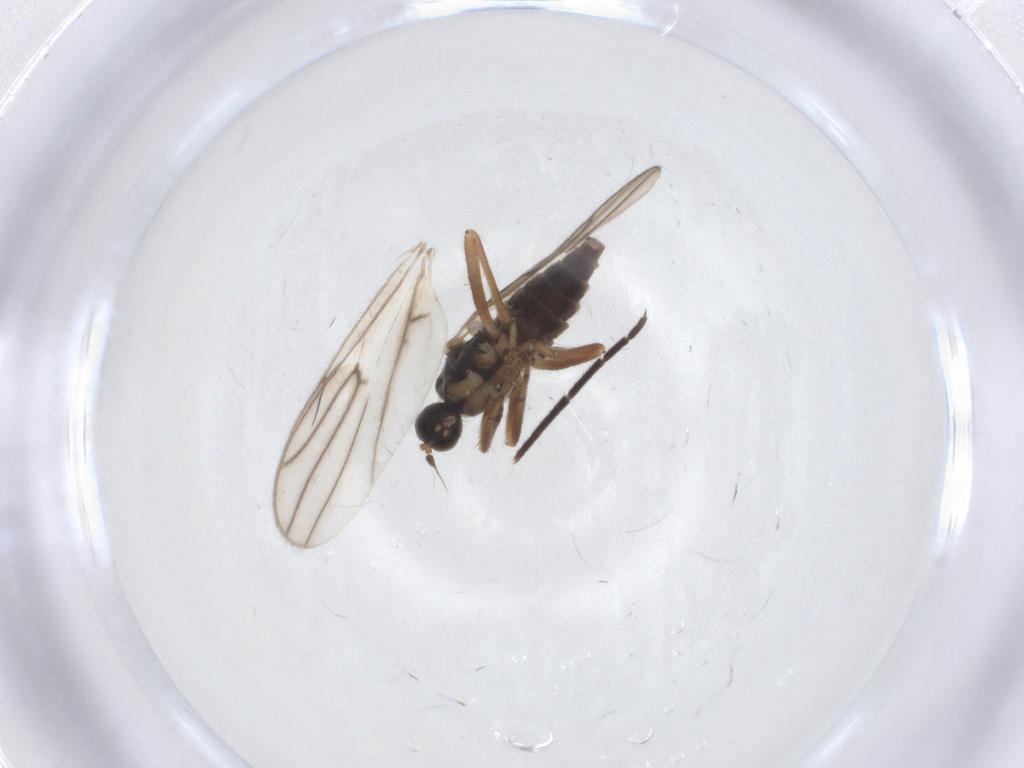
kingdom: Animalia
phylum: Arthropoda
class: Insecta
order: Diptera
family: Hybotidae
